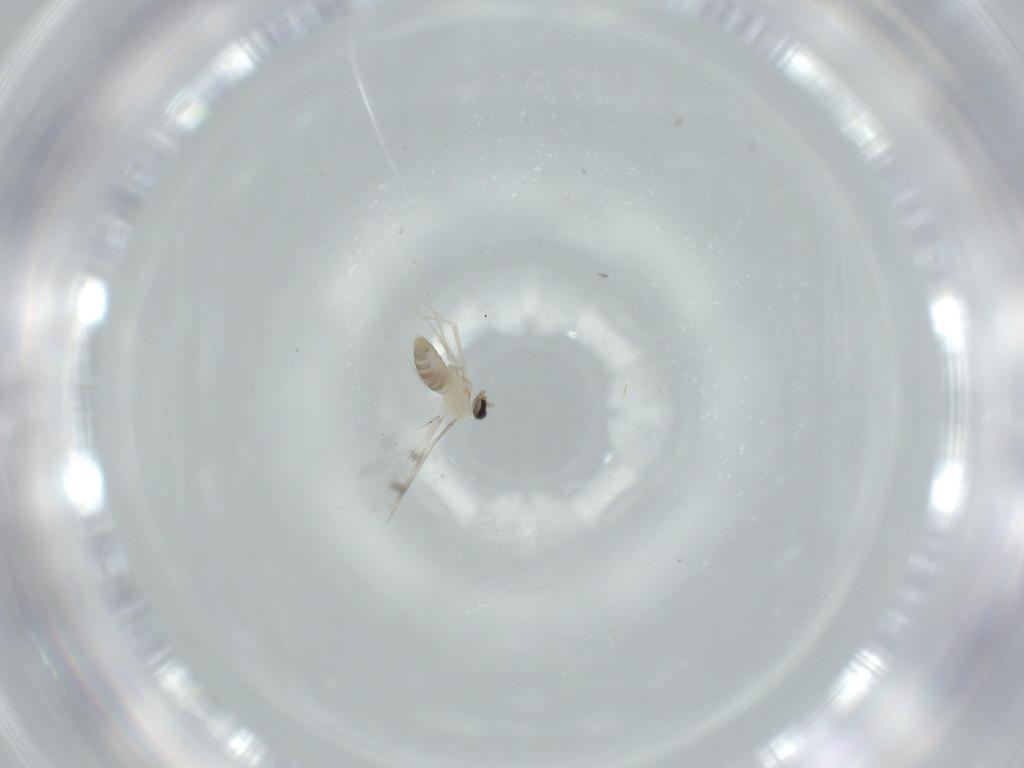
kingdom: Animalia
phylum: Arthropoda
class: Insecta
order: Diptera
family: Cecidomyiidae
